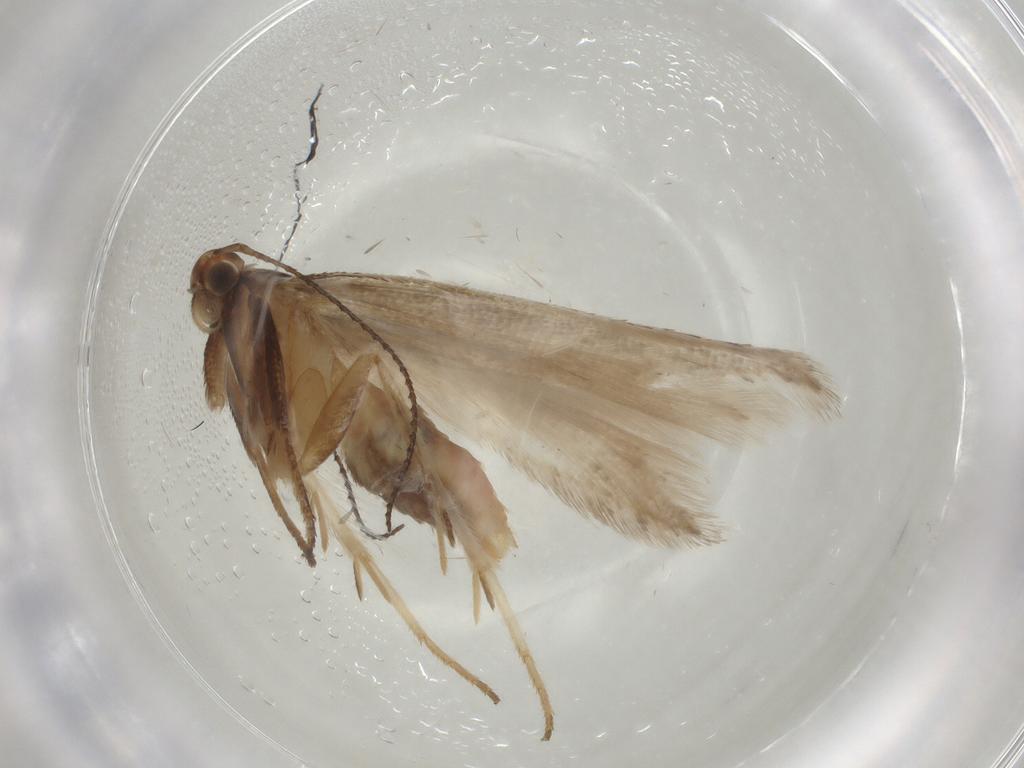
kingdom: Animalia
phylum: Arthropoda
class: Insecta
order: Lepidoptera
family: Gelechiidae
